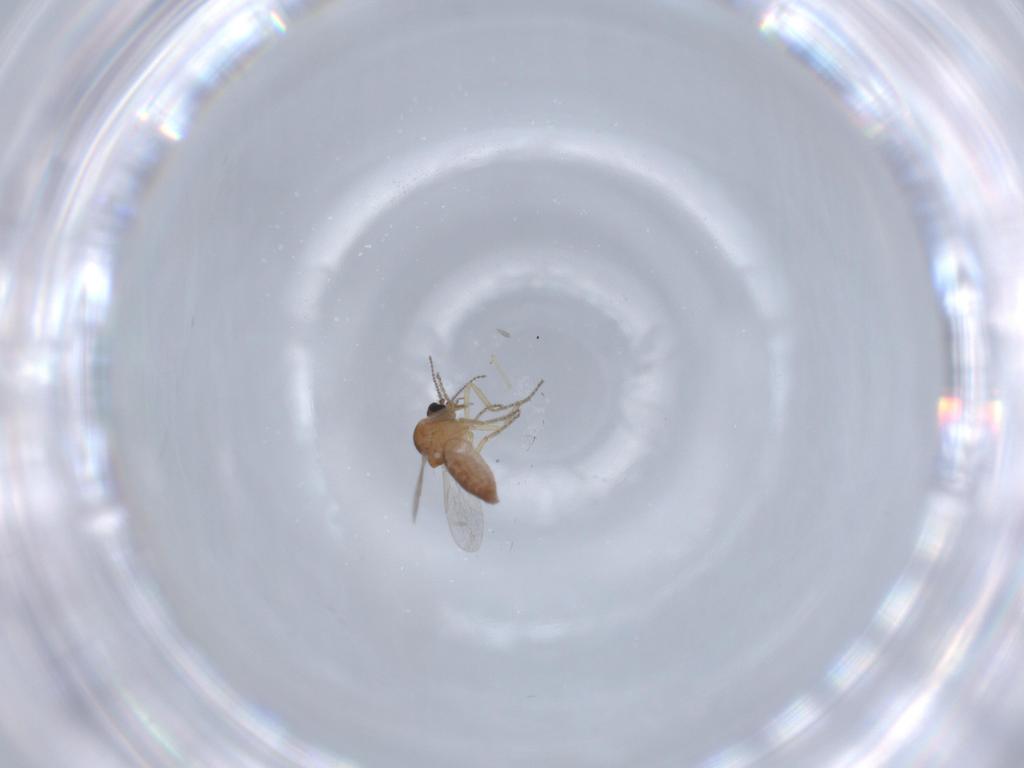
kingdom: Animalia
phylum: Arthropoda
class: Insecta
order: Diptera
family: Ceratopogonidae
